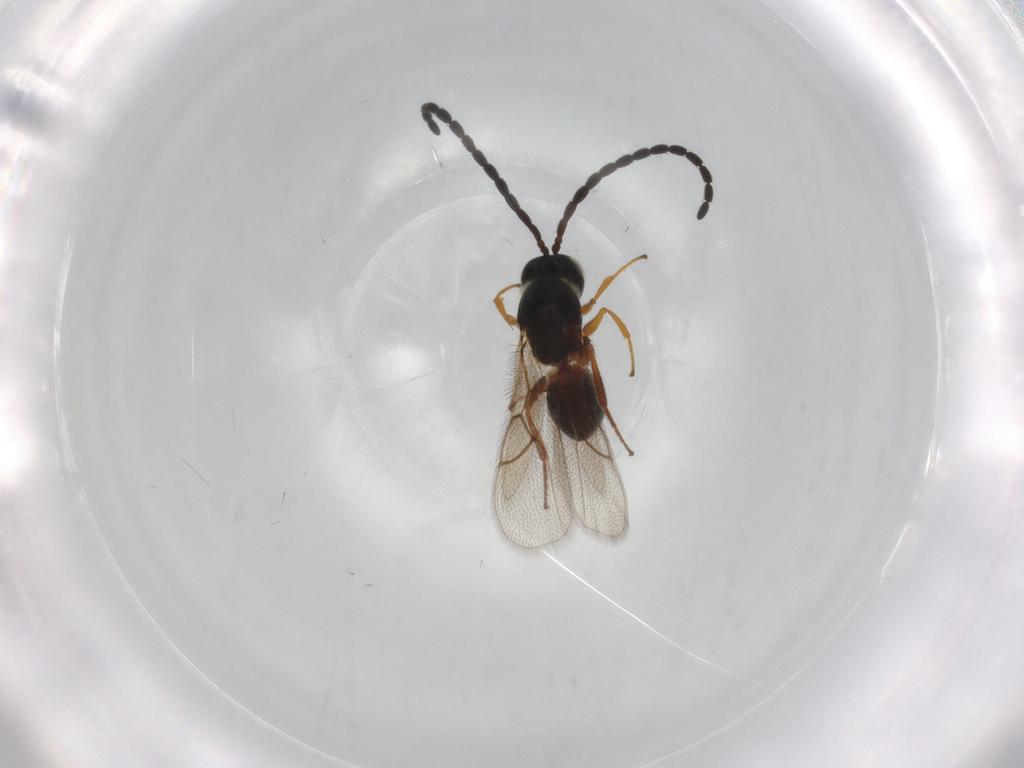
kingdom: Animalia
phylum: Arthropoda
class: Insecta
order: Hymenoptera
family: Figitidae
